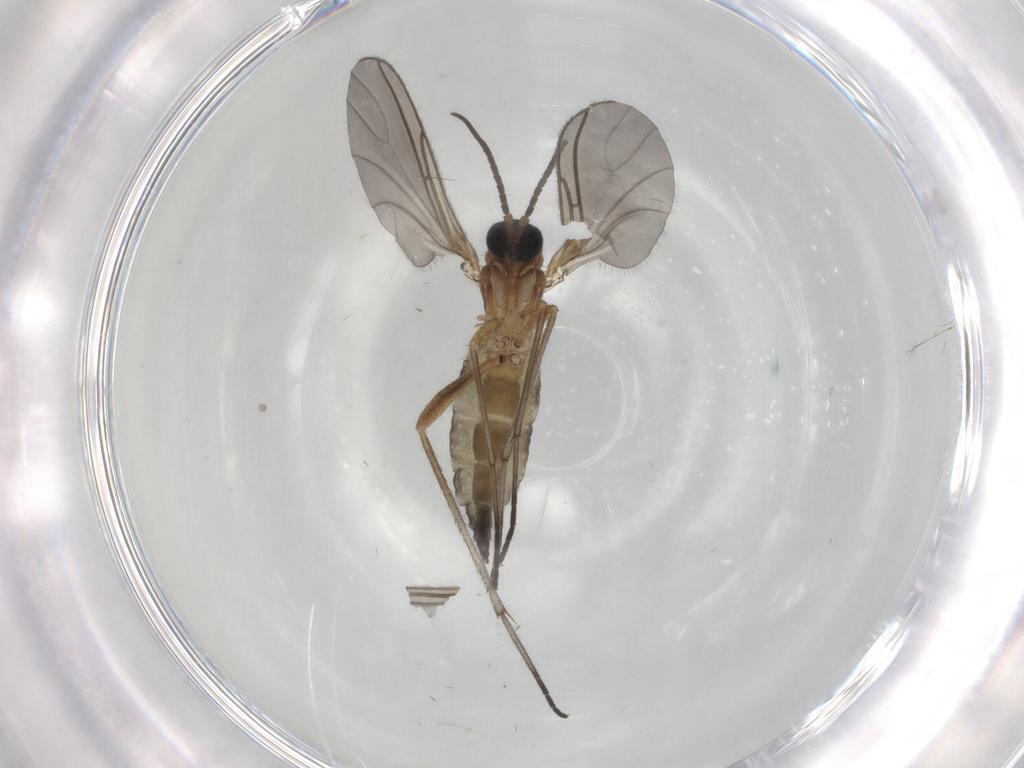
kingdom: Animalia
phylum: Arthropoda
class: Insecta
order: Diptera
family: Sciaridae
